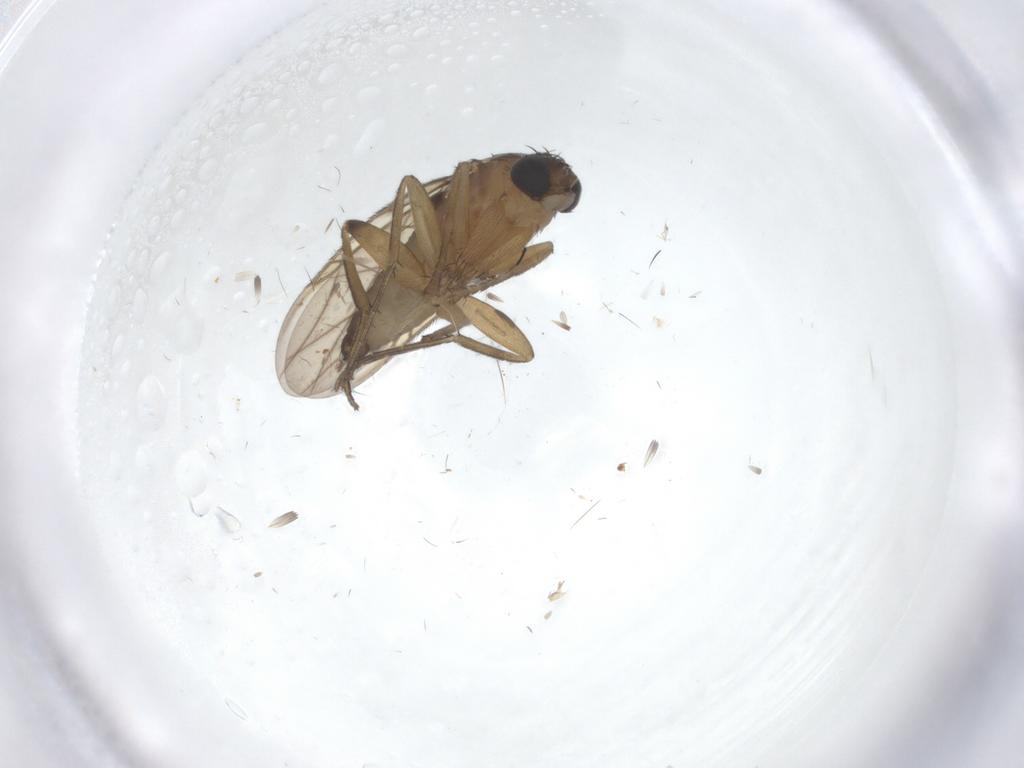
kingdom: Animalia
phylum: Arthropoda
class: Insecta
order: Diptera
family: Phoridae
